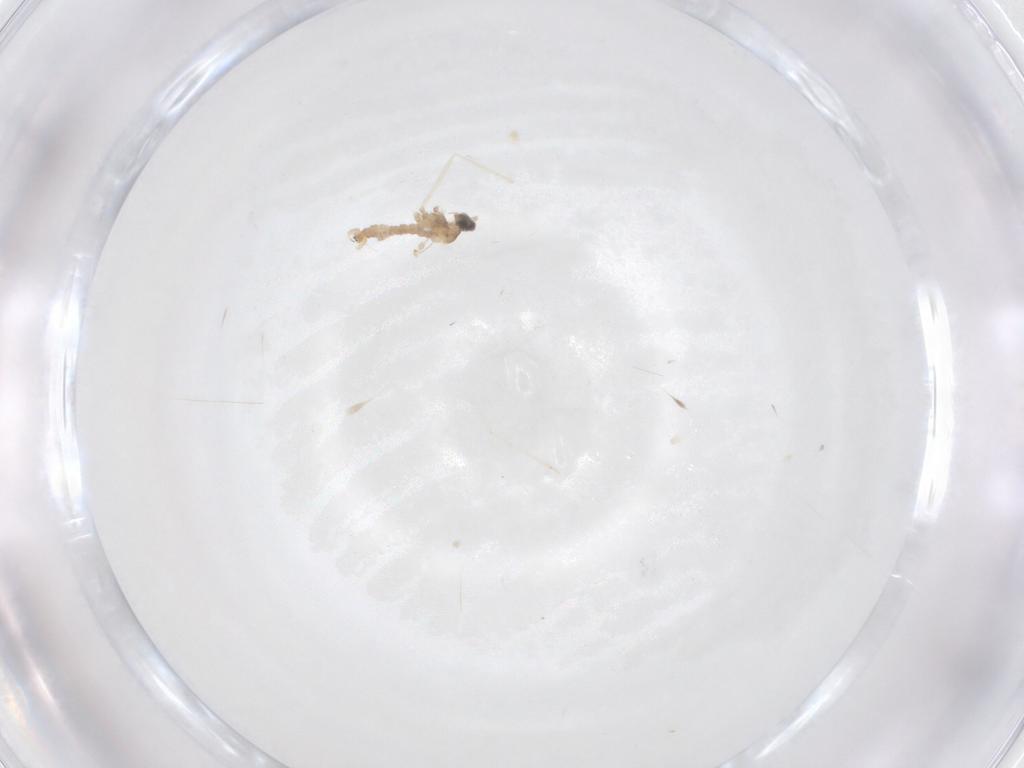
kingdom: Animalia
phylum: Arthropoda
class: Insecta
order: Diptera
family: Cecidomyiidae
